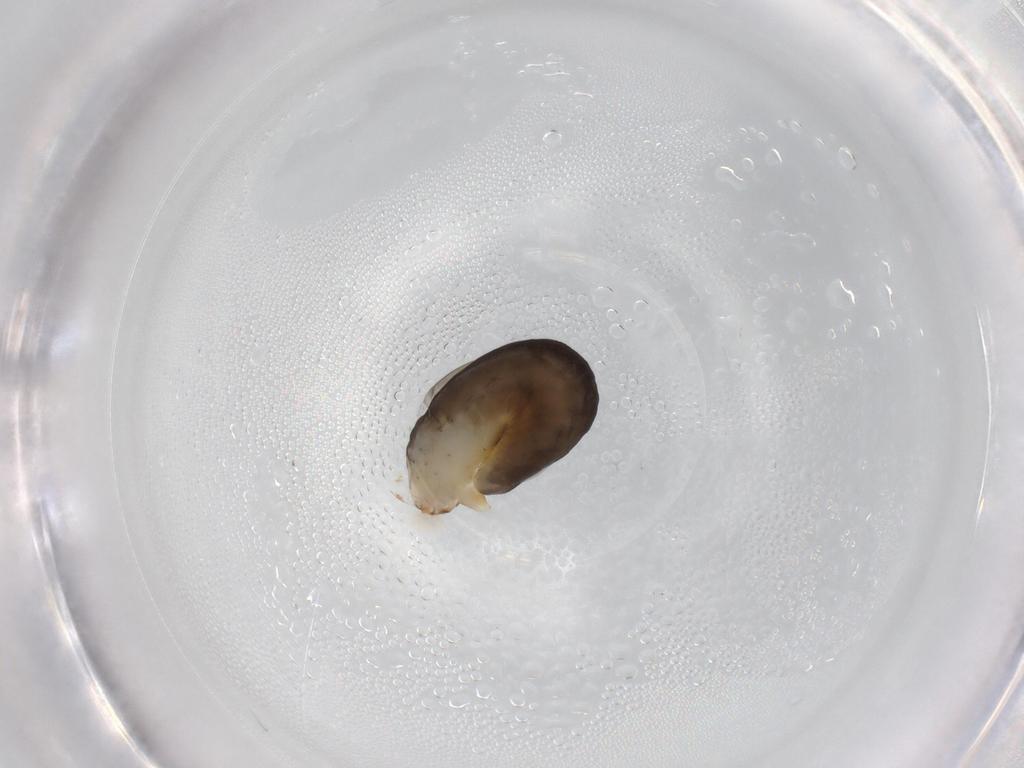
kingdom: Animalia
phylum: Arthropoda
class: Insecta
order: Hymenoptera
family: Dryinidae
